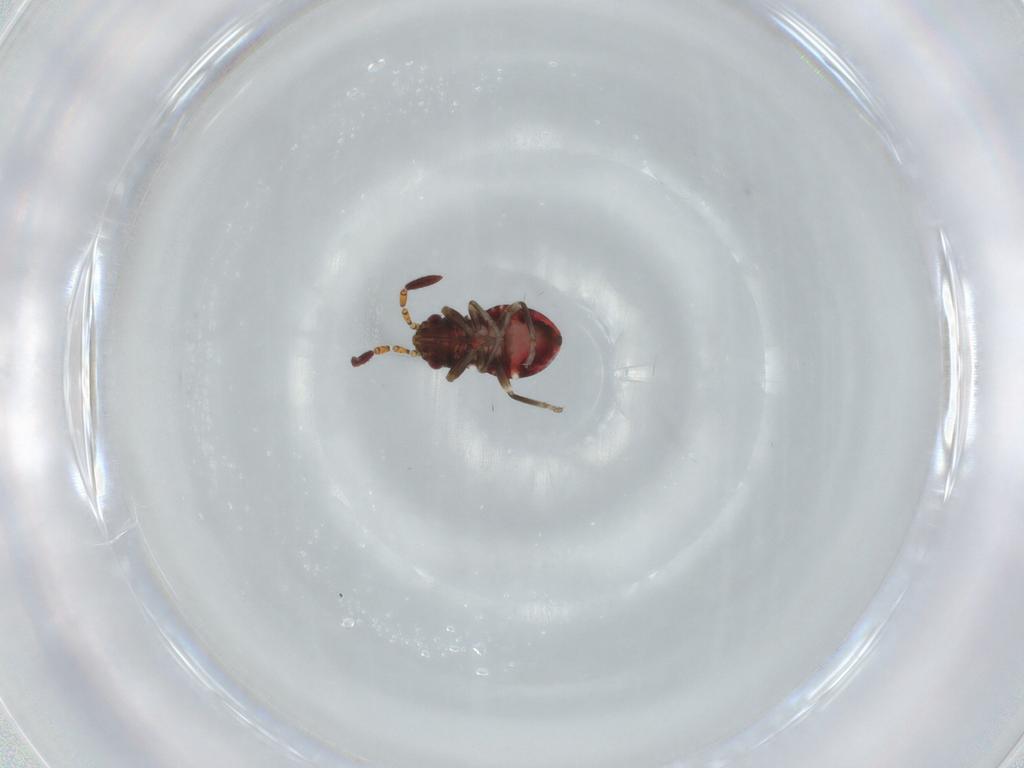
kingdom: Animalia
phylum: Arthropoda
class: Insecta
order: Hemiptera
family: Rhyparochromidae
